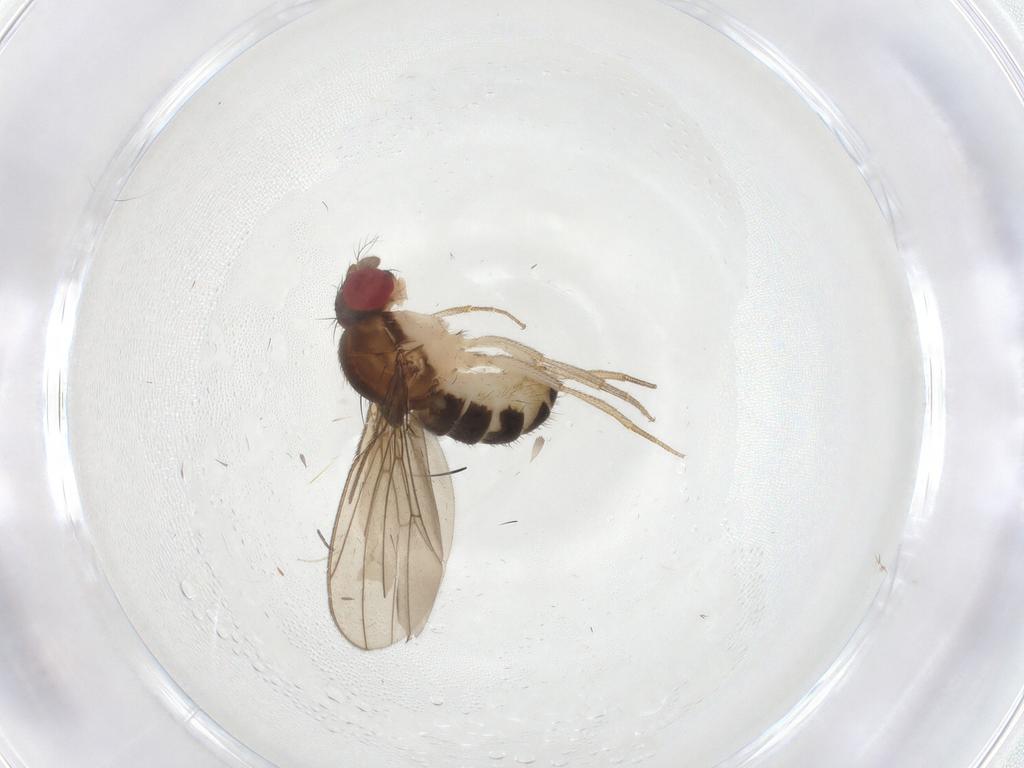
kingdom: Animalia
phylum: Arthropoda
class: Insecta
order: Diptera
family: Drosophilidae
